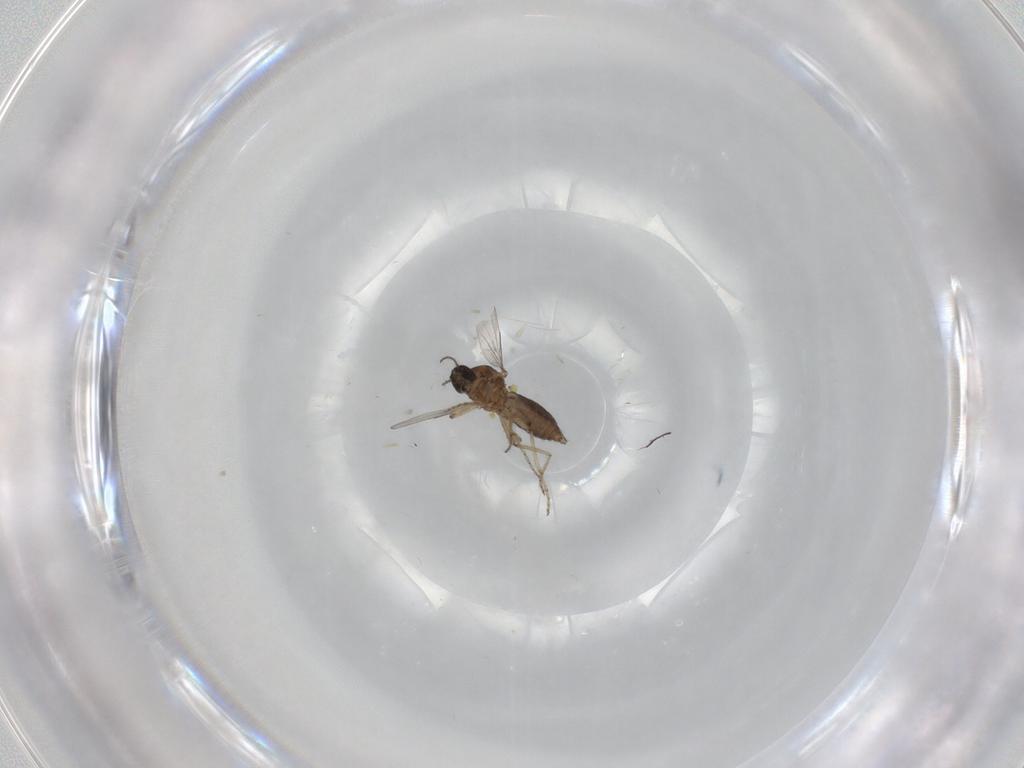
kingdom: Animalia
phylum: Arthropoda
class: Insecta
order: Diptera
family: Ceratopogonidae
